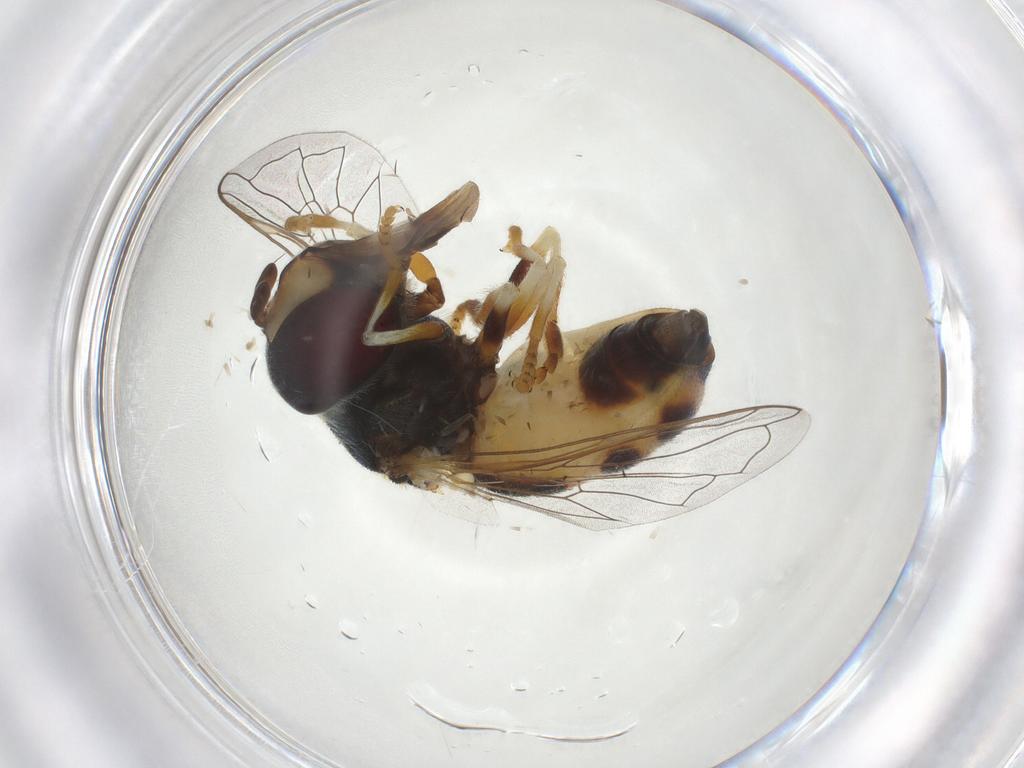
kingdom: Animalia
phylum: Arthropoda
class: Insecta
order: Diptera
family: Syrphidae
